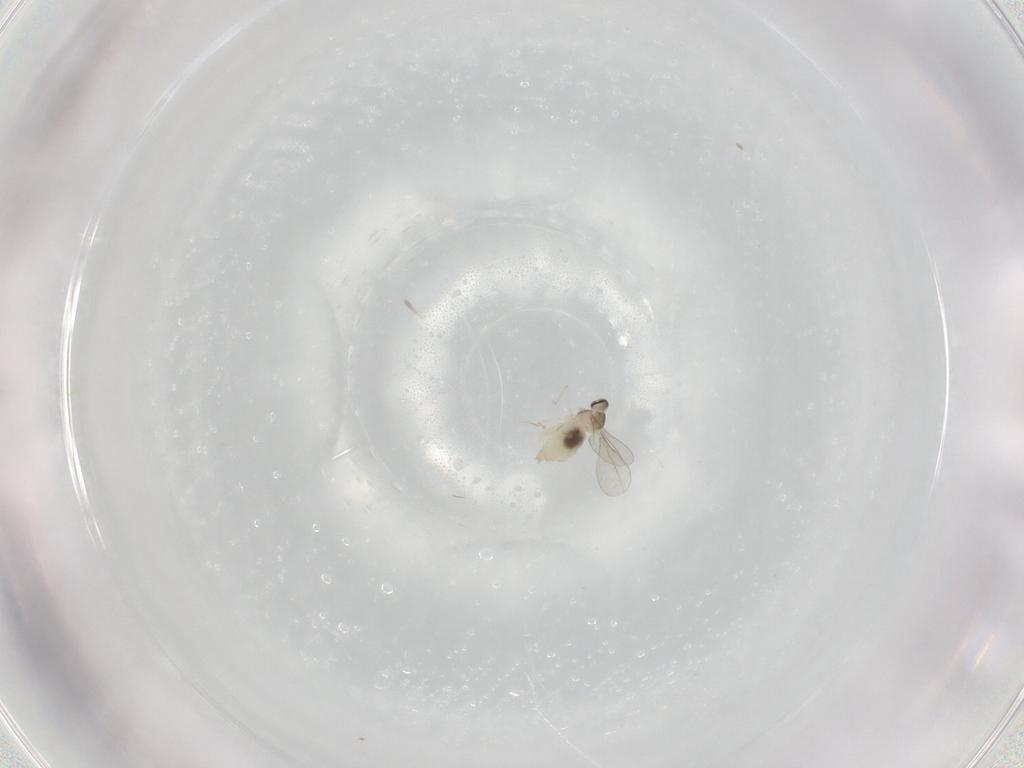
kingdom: Animalia
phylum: Arthropoda
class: Insecta
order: Diptera
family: Cecidomyiidae
